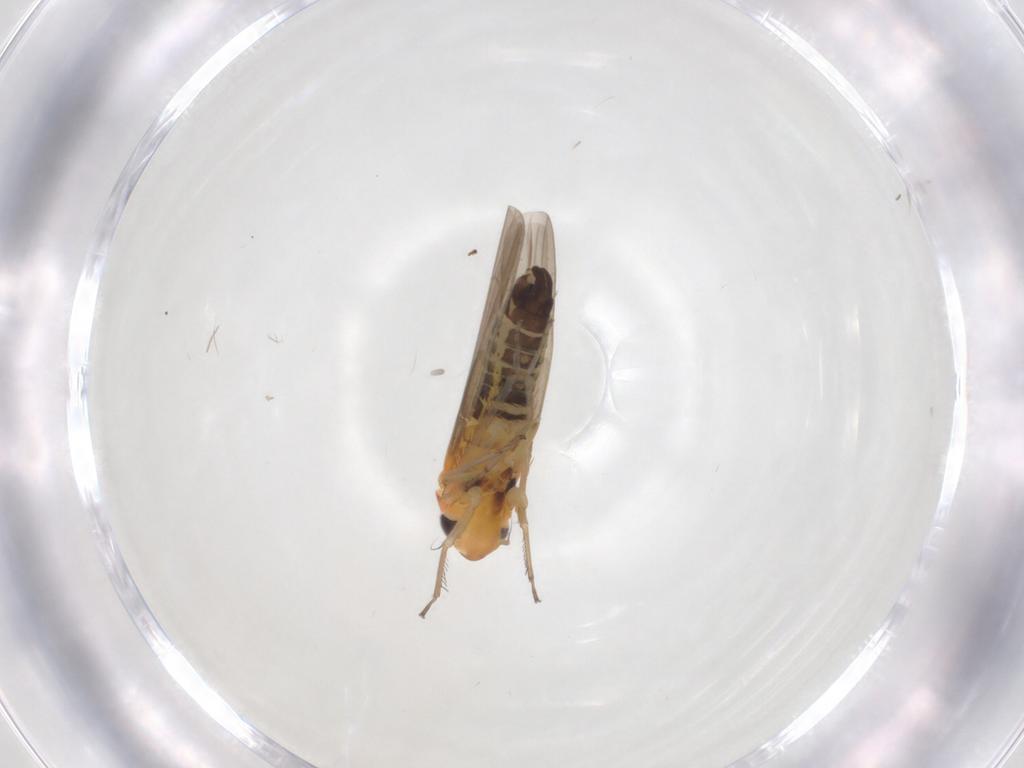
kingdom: Animalia
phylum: Arthropoda
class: Insecta
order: Hemiptera
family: Cicadellidae
